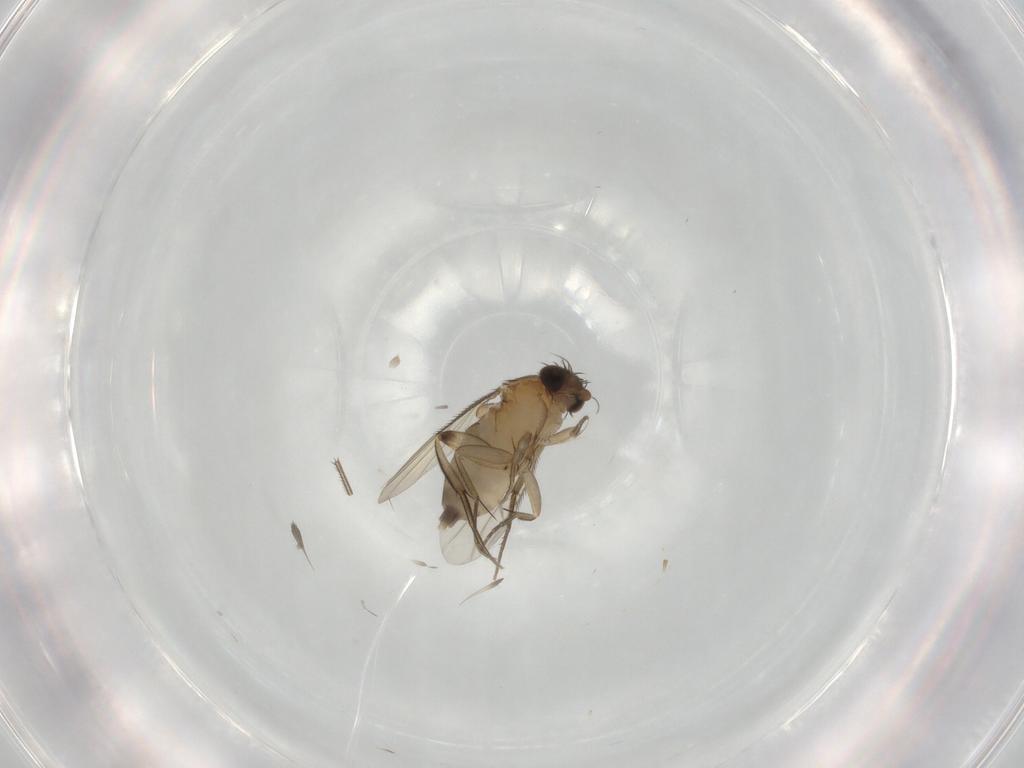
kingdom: Animalia
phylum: Arthropoda
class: Insecta
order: Diptera
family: Phoridae
